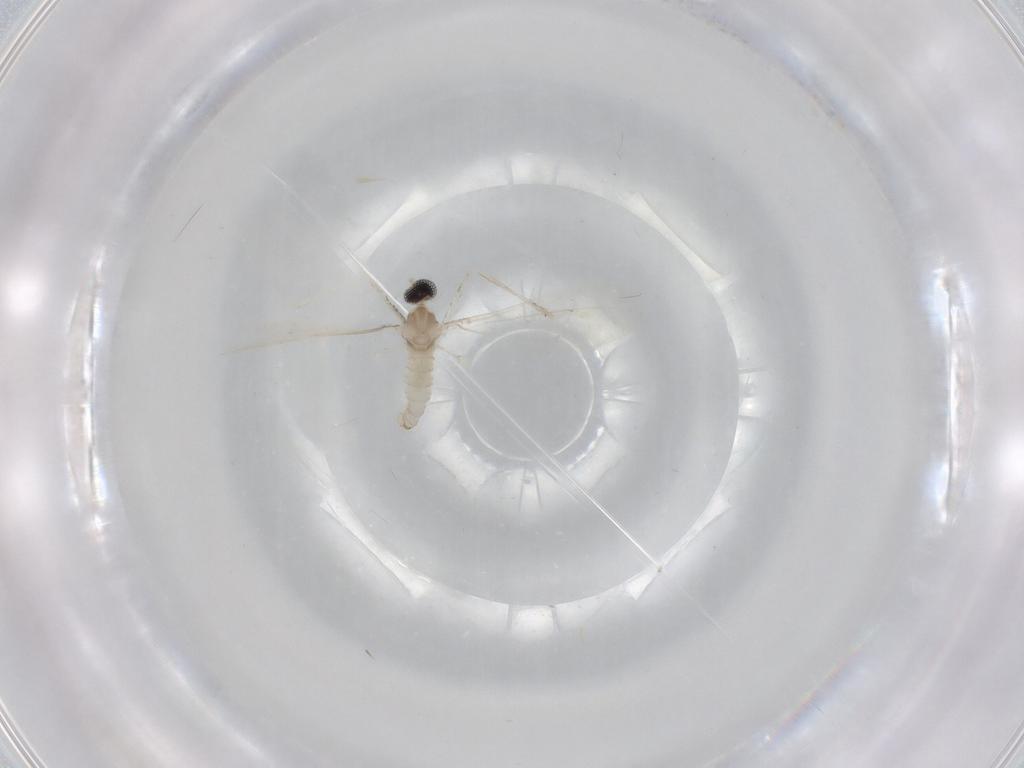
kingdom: Animalia
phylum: Arthropoda
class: Insecta
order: Diptera
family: Cecidomyiidae
